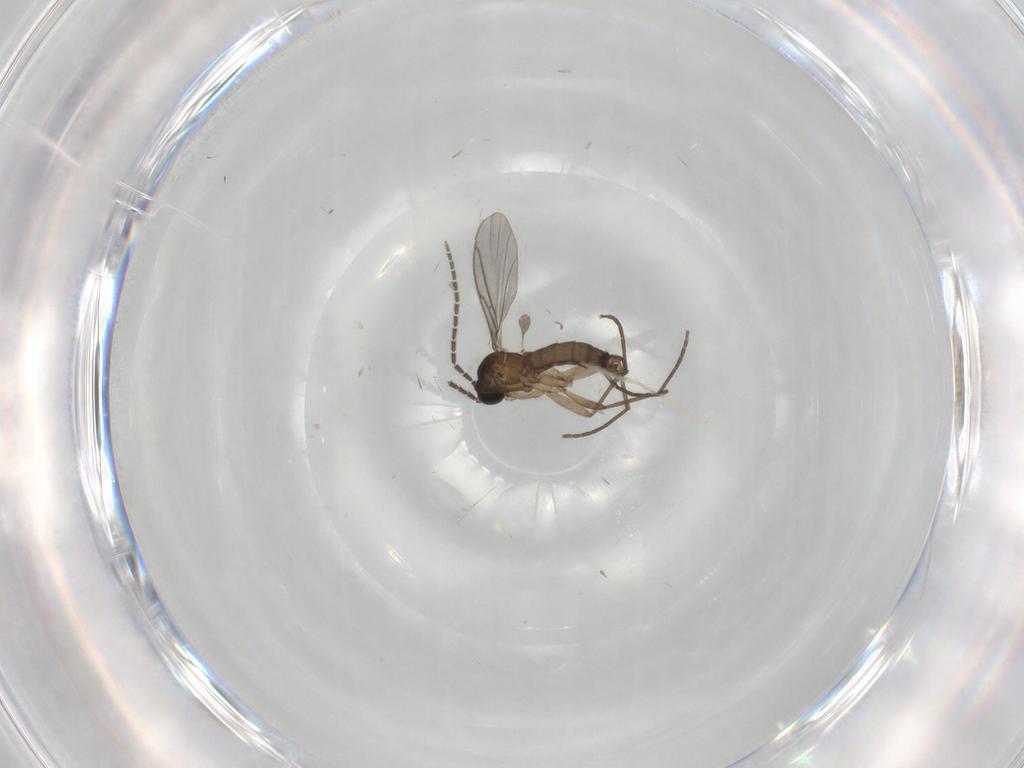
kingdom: Animalia
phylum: Arthropoda
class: Insecta
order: Diptera
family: Sciaridae
